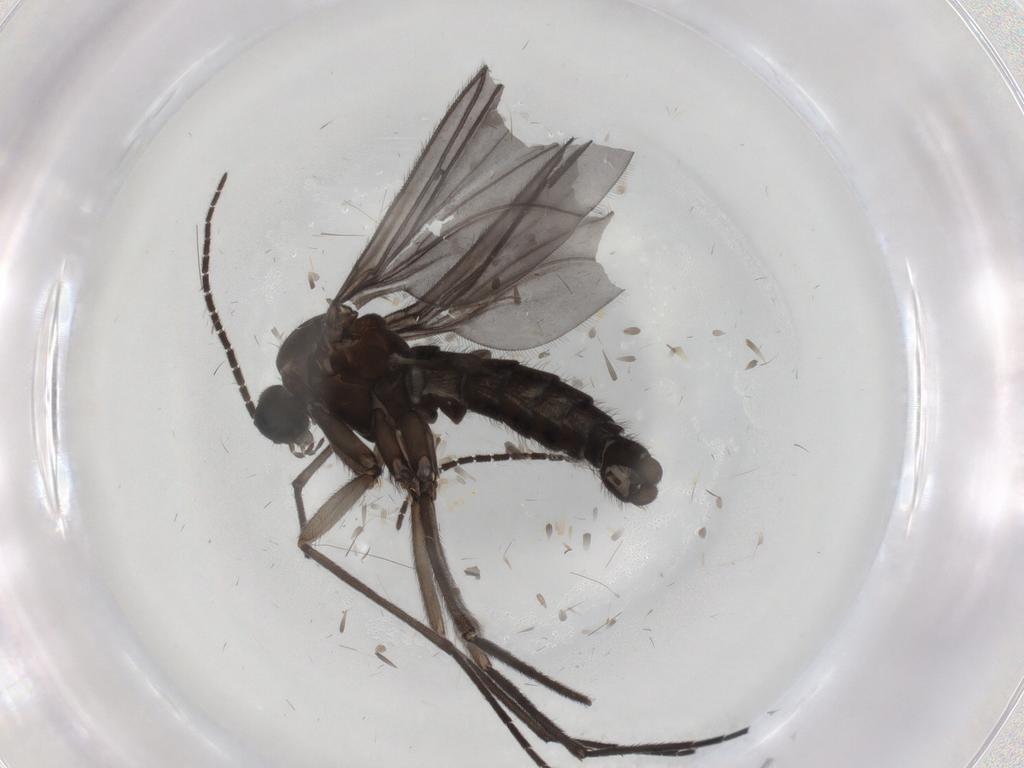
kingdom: Animalia
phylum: Arthropoda
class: Insecta
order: Diptera
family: Sciaridae
